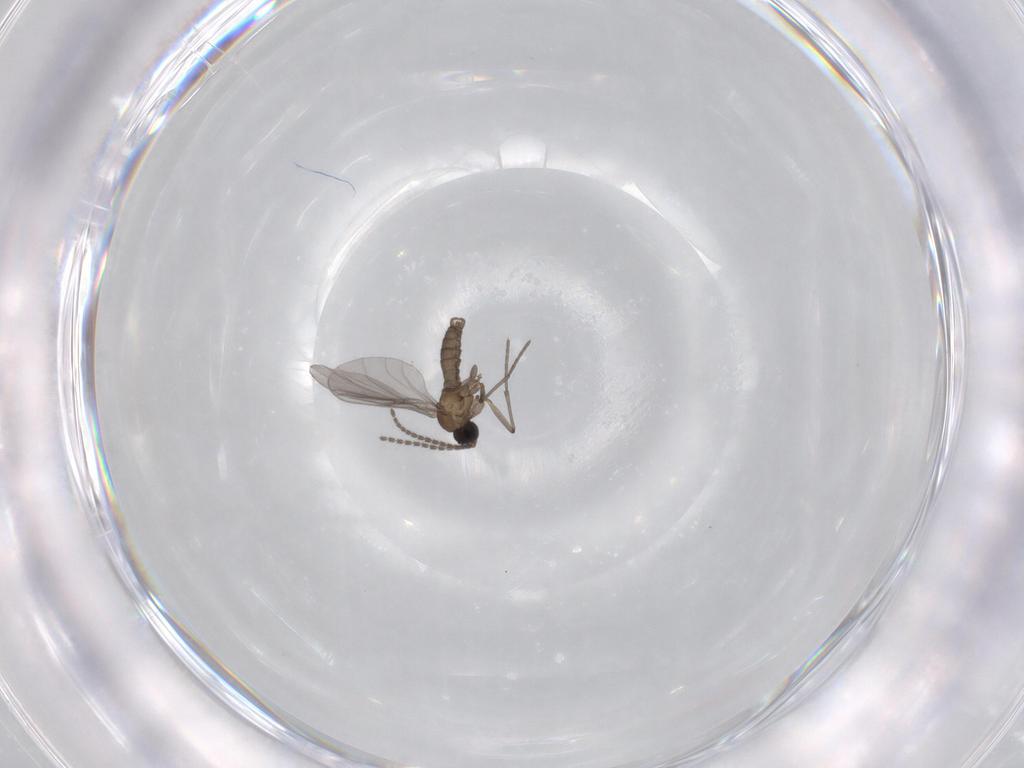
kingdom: Animalia
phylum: Arthropoda
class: Insecta
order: Diptera
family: Sciaridae
